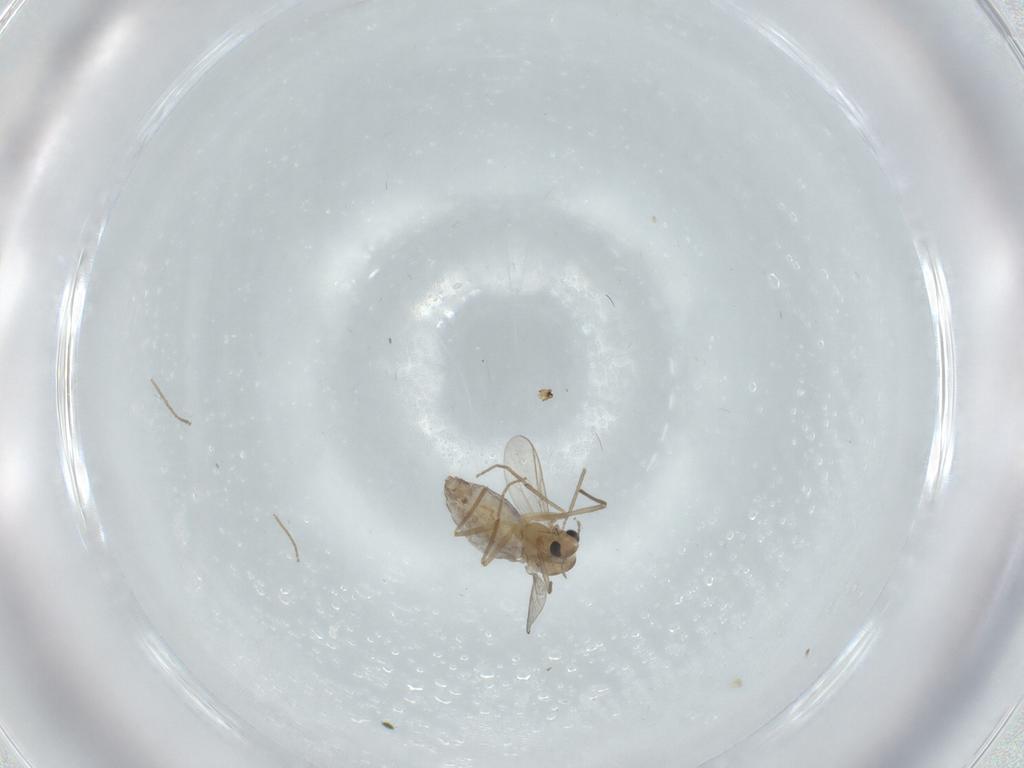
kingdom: Animalia
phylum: Arthropoda
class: Insecta
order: Diptera
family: Chironomidae
